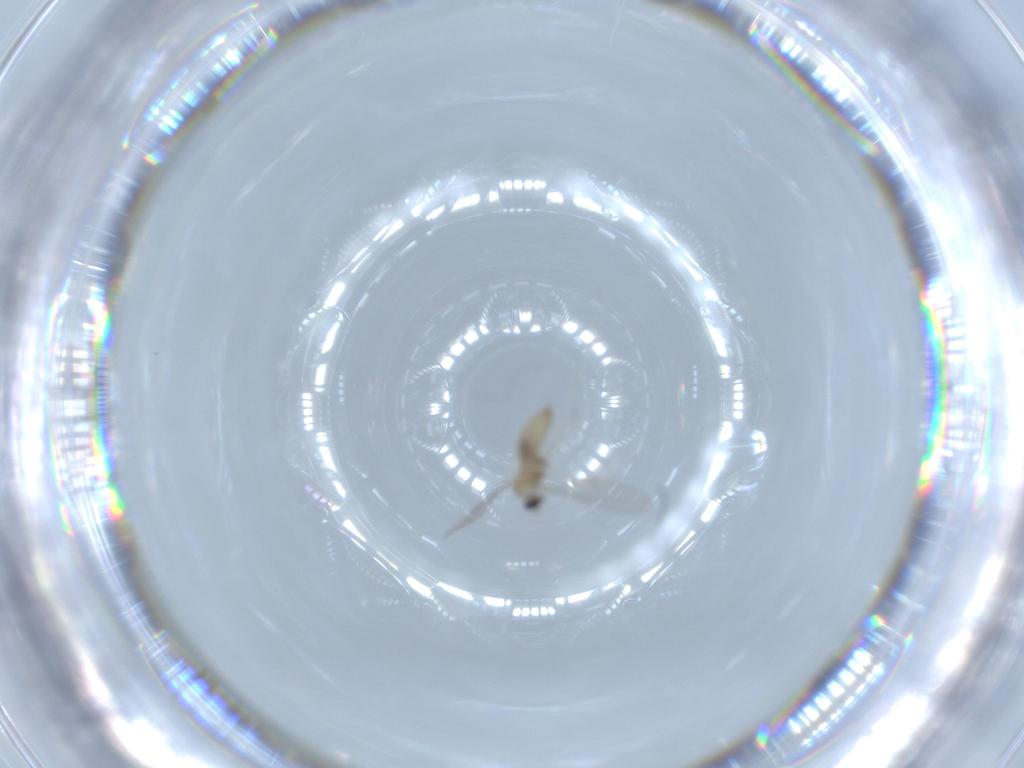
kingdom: Animalia
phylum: Arthropoda
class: Insecta
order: Diptera
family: Cecidomyiidae
